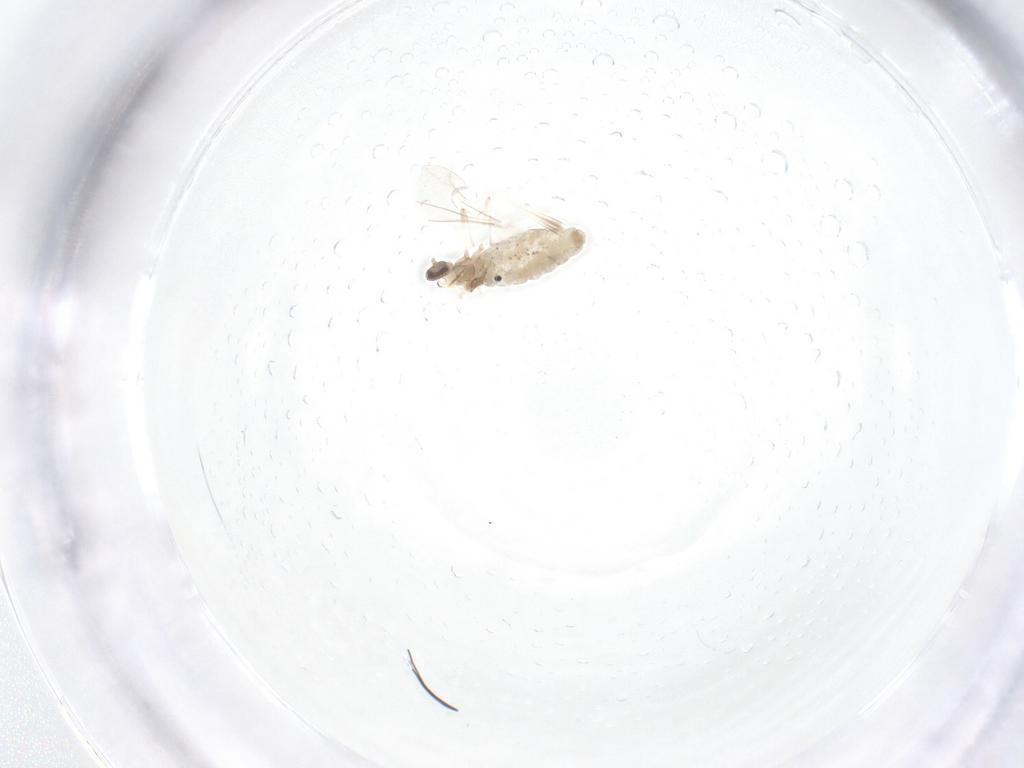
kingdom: Animalia
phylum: Arthropoda
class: Insecta
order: Diptera
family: Cecidomyiidae
